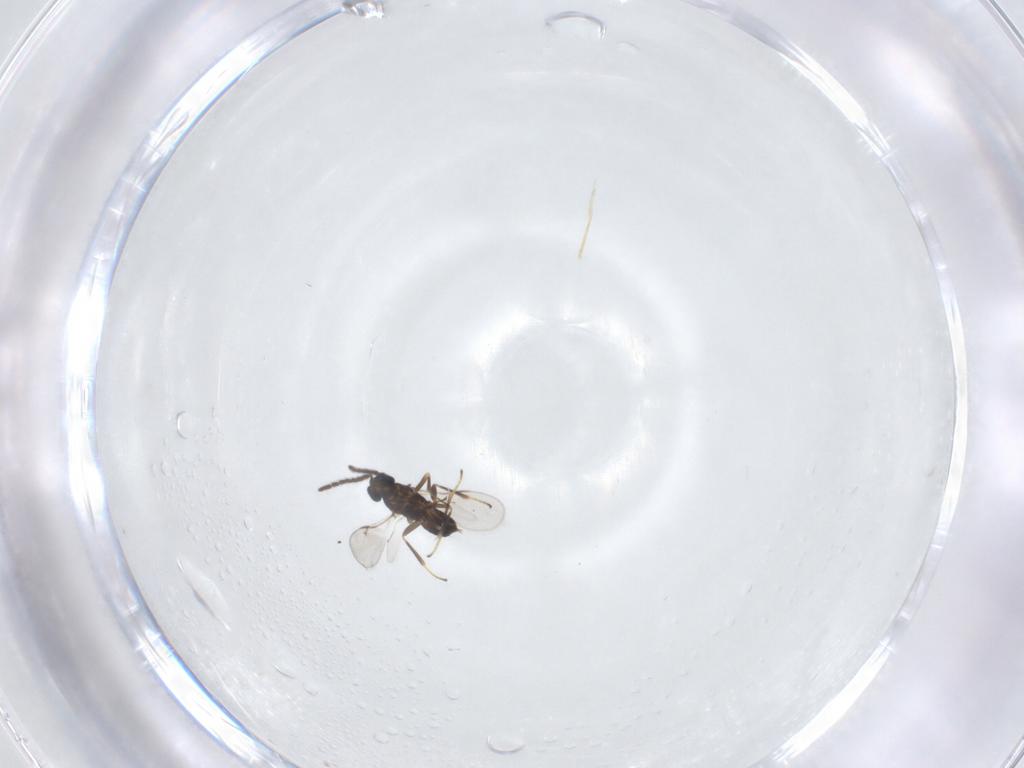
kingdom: Animalia
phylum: Arthropoda
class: Insecta
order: Hymenoptera
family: Encyrtidae
